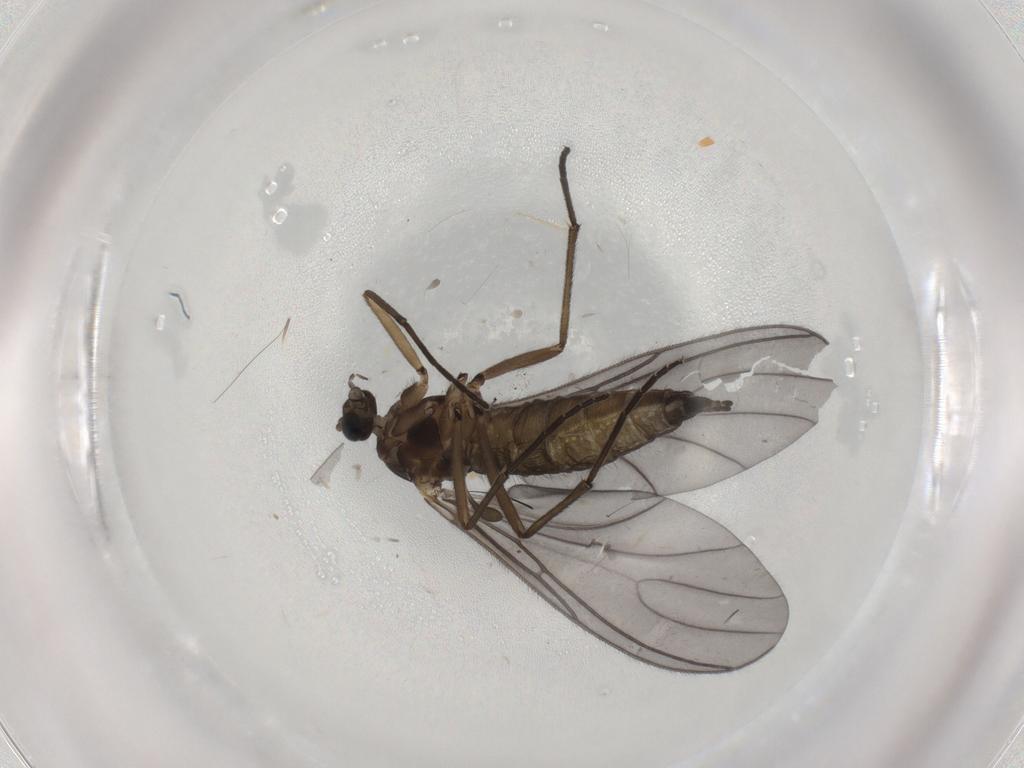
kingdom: Animalia
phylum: Arthropoda
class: Insecta
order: Diptera
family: Sciaridae
